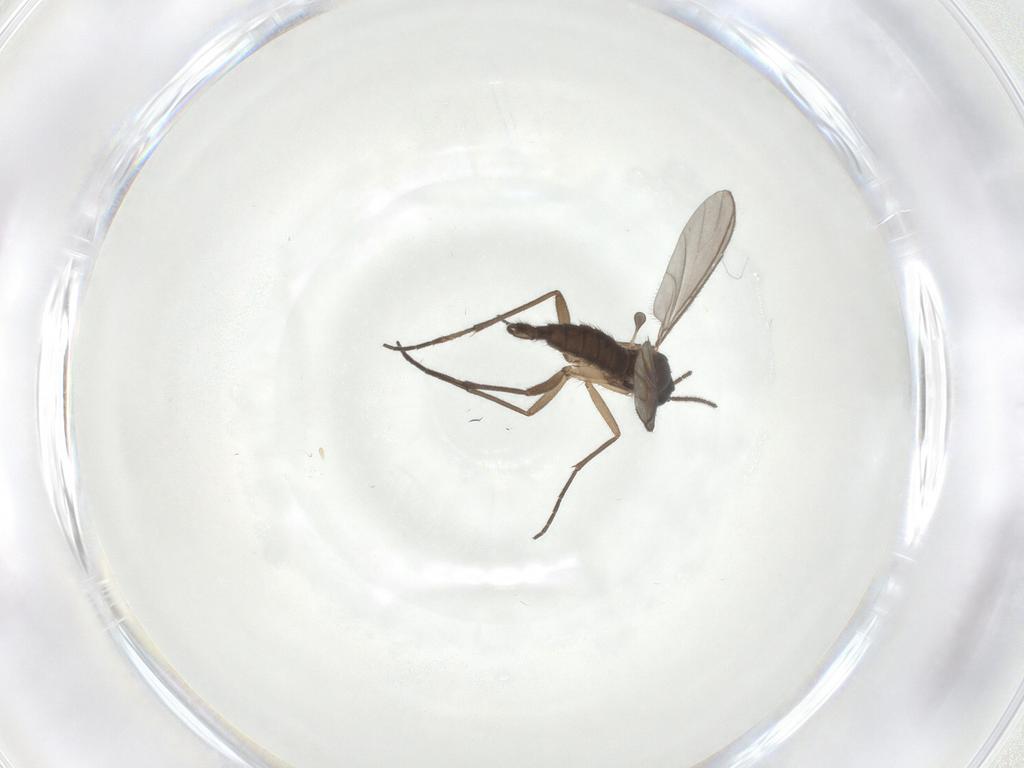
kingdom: Animalia
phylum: Arthropoda
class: Insecta
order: Diptera
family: Sciaridae
